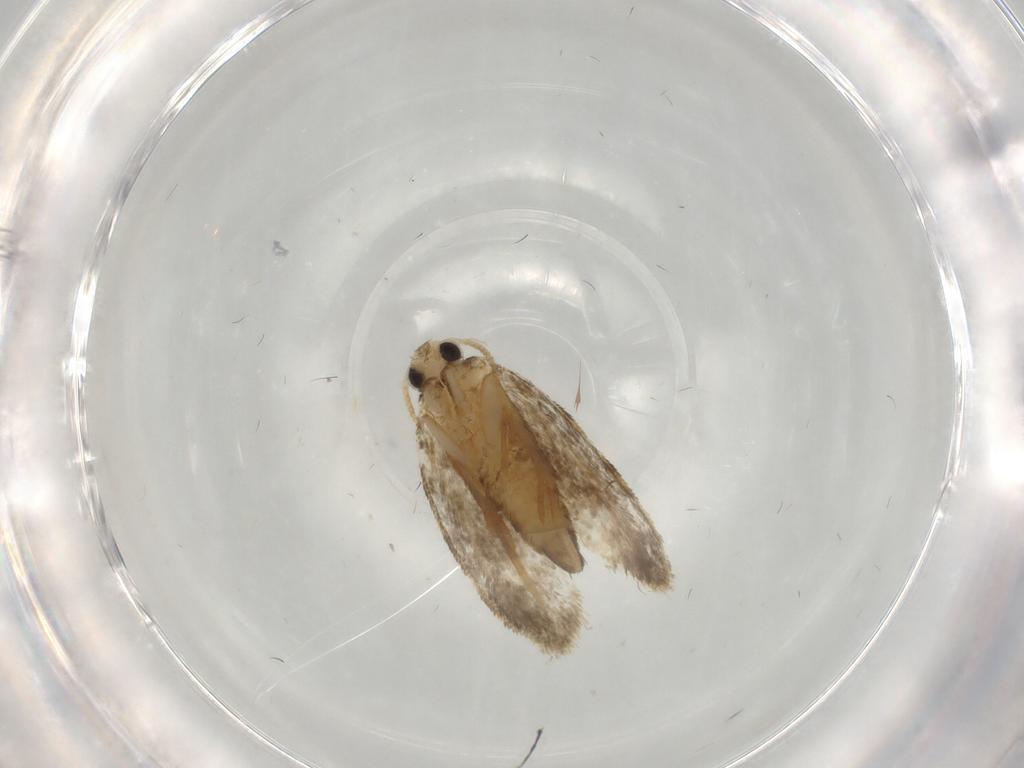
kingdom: Animalia
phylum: Arthropoda
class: Insecta
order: Lepidoptera
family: Psychidae
